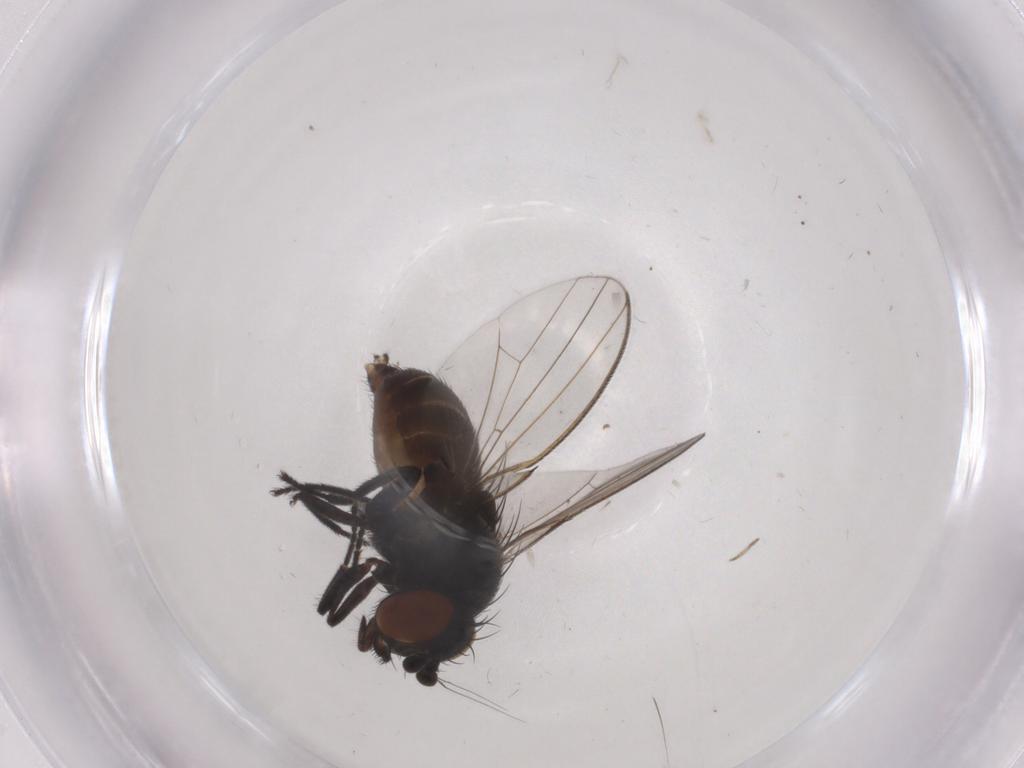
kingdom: Animalia
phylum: Arthropoda
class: Insecta
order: Diptera
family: Milichiidae
